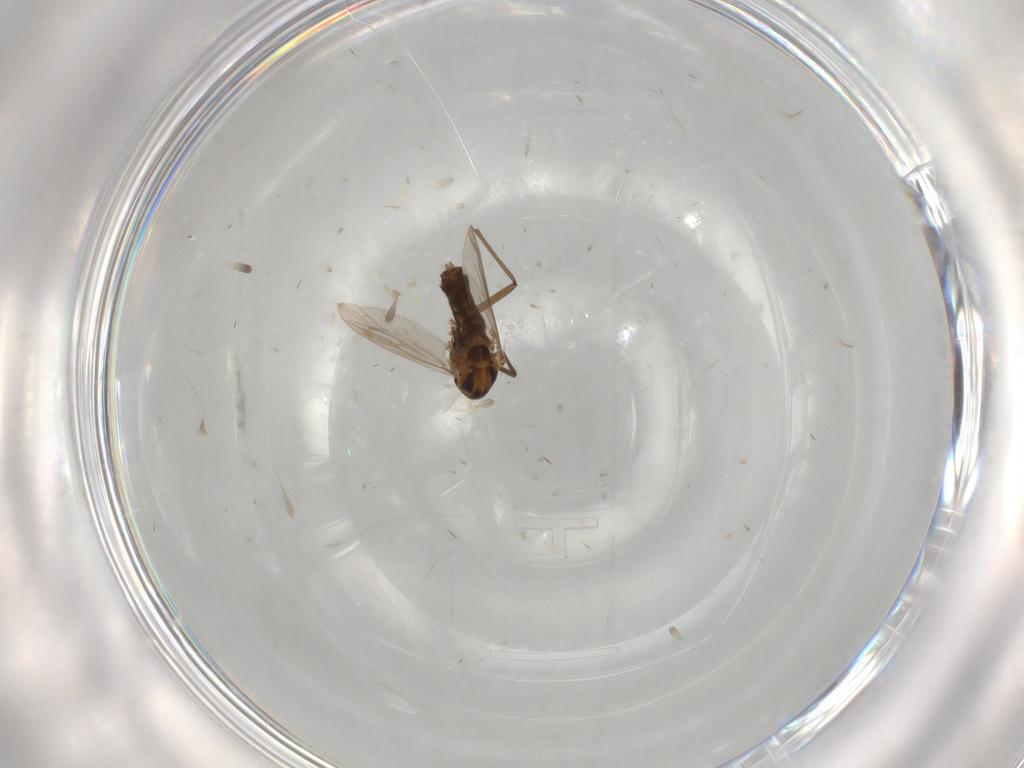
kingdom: Animalia
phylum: Arthropoda
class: Insecta
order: Diptera
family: Chironomidae
